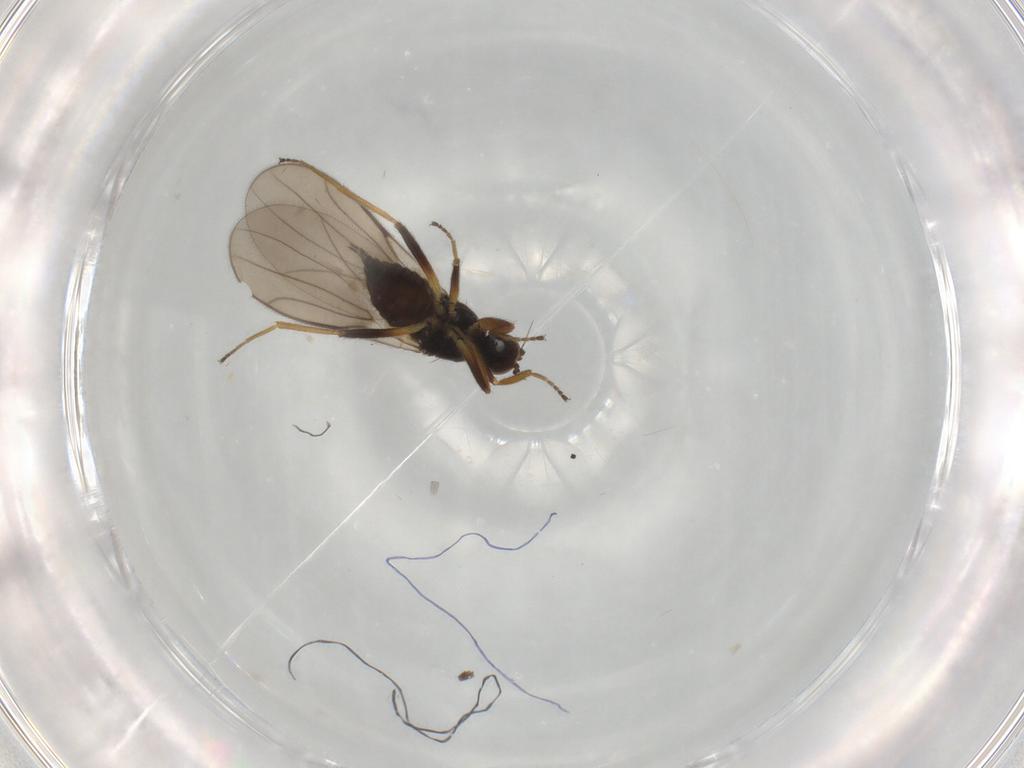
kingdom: Animalia
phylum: Arthropoda
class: Insecta
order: Diptera
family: Hybotidae
